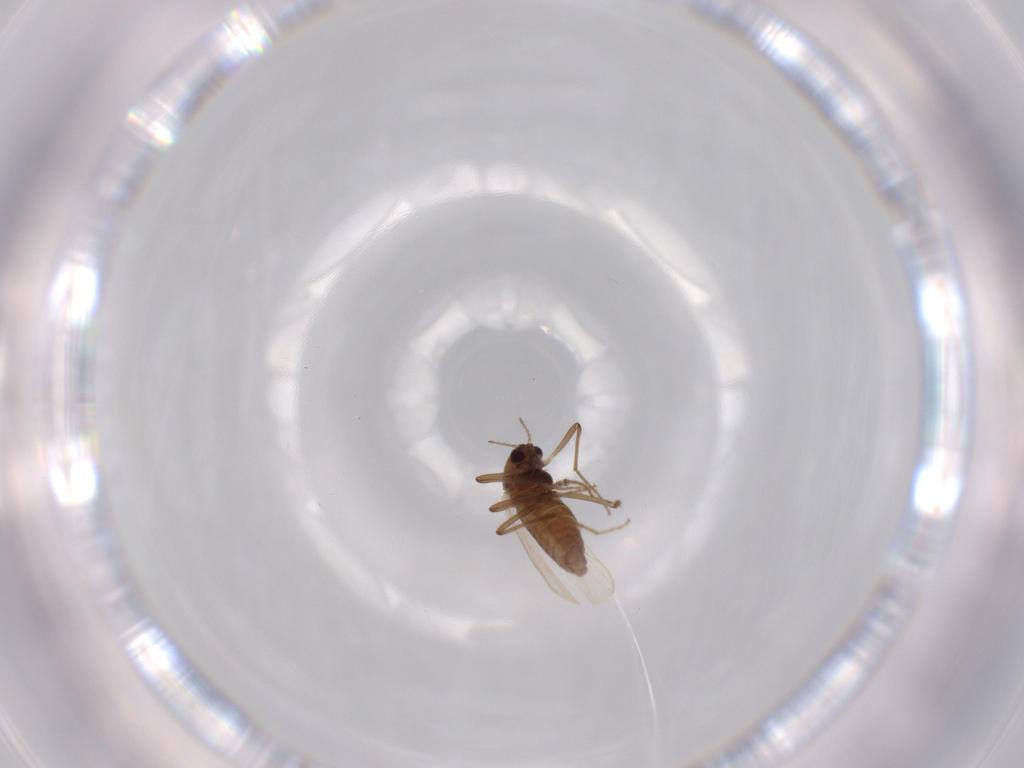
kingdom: Animalia
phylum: Arthropoda
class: Insecta
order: Diptera
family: Chironomidae
